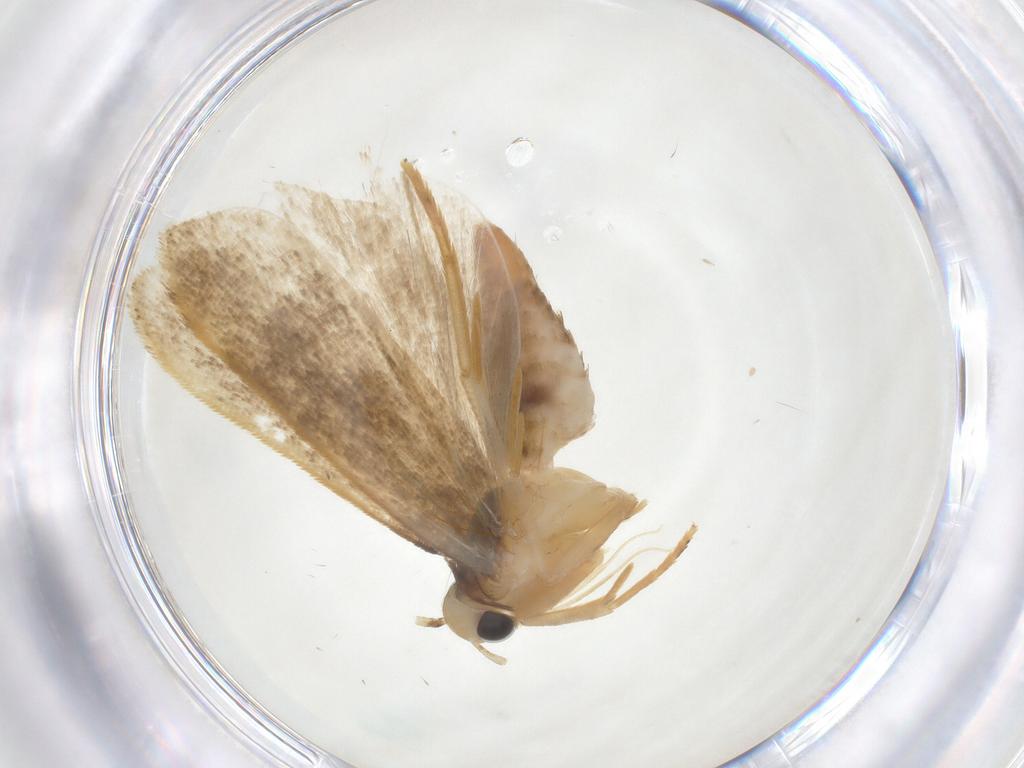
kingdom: Animalia
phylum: Arthropoda
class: Insecta
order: Lepidoptera
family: Gelechiidae
